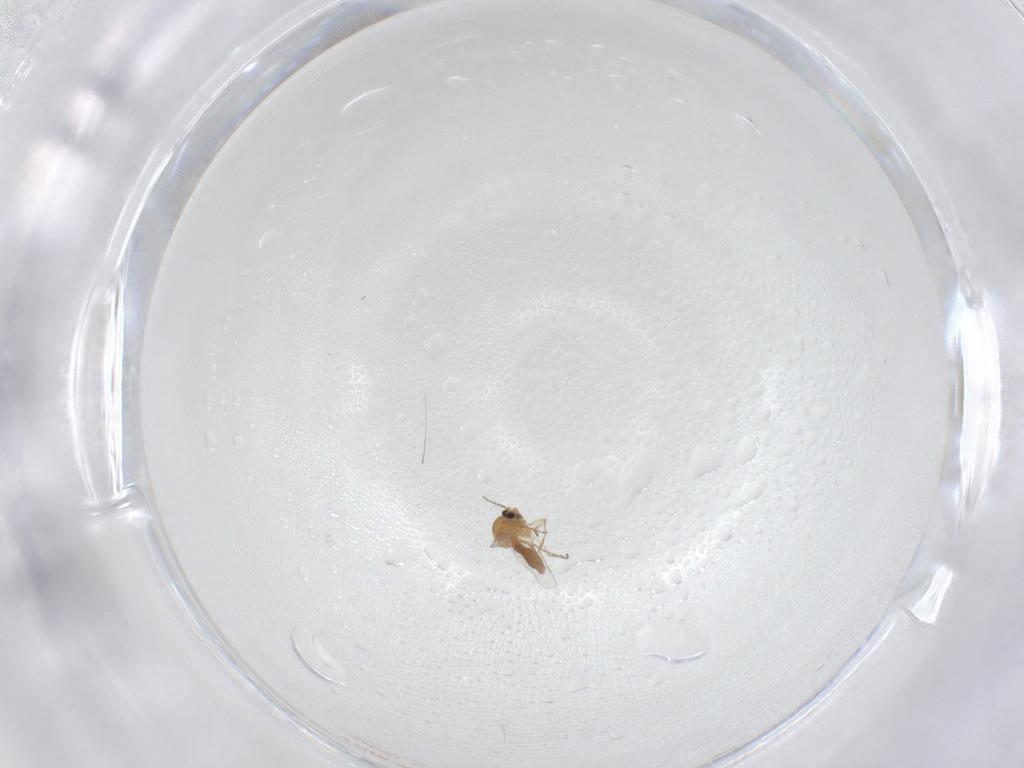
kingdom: Animalia
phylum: Arthropoda
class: Insecta
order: Diptera
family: Ceratopogonidae
